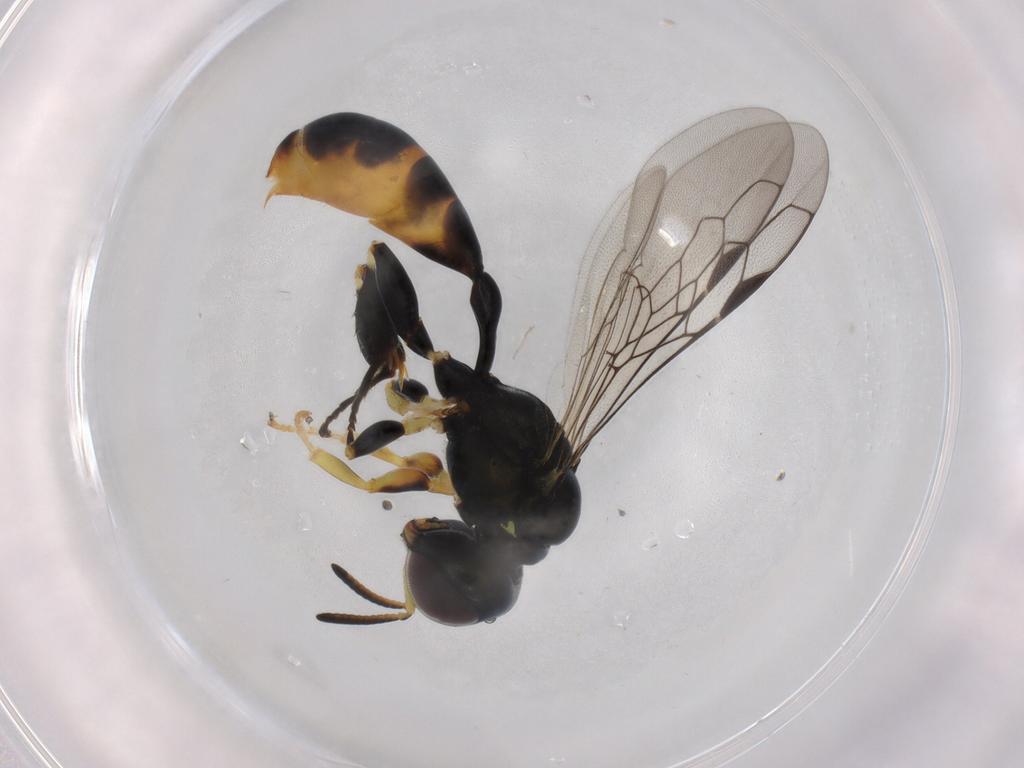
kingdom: Animalia
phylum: Arthropoda
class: Insecta
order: Hymenoptera
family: Crabronidae
